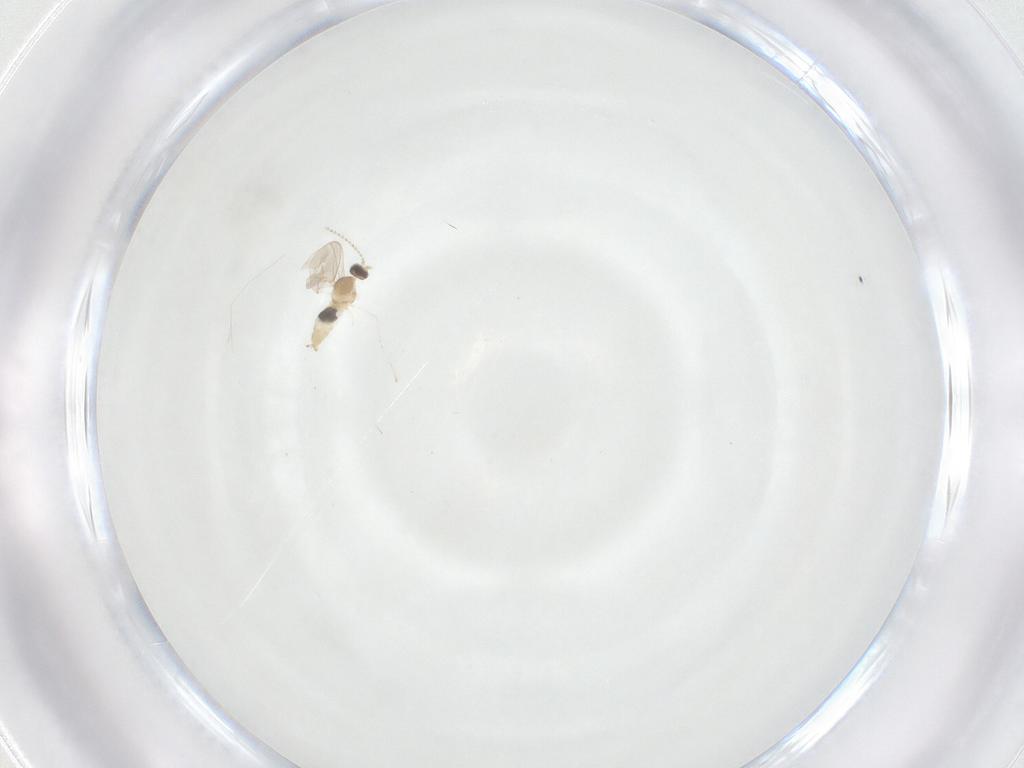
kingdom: Animalia
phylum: Arthropoda
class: Insecta
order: Diptera
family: Cecidomyiidae
